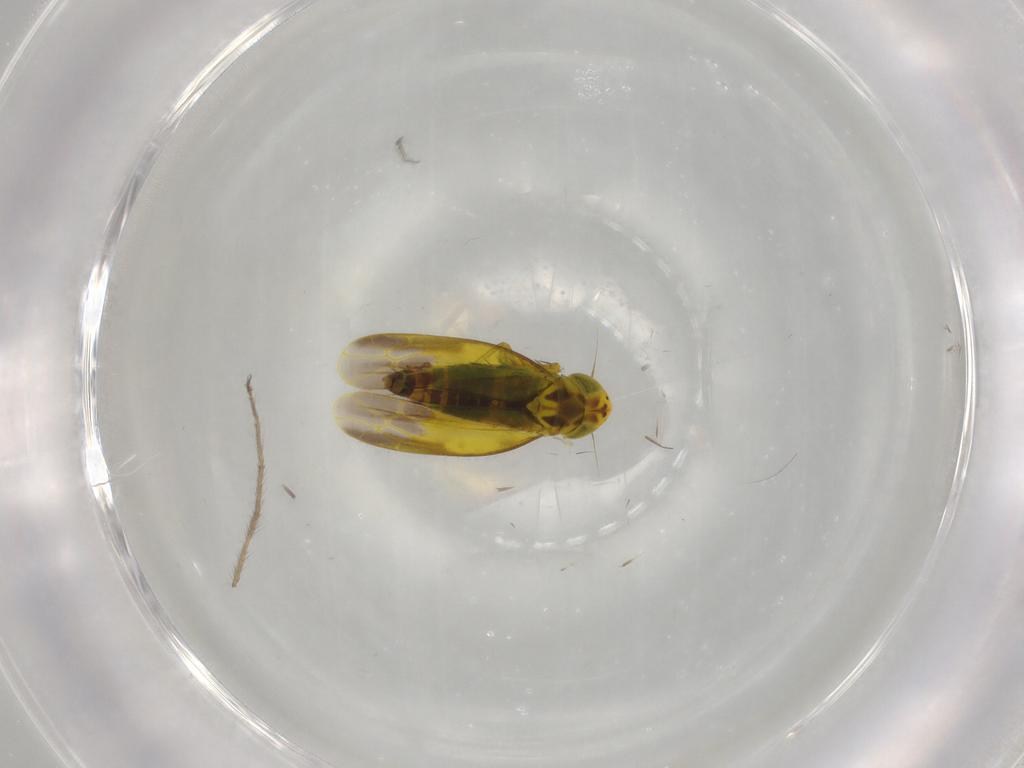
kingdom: Animalia
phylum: Arthropoda
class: Insecta
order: Hemiptera
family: Cicadellidae
